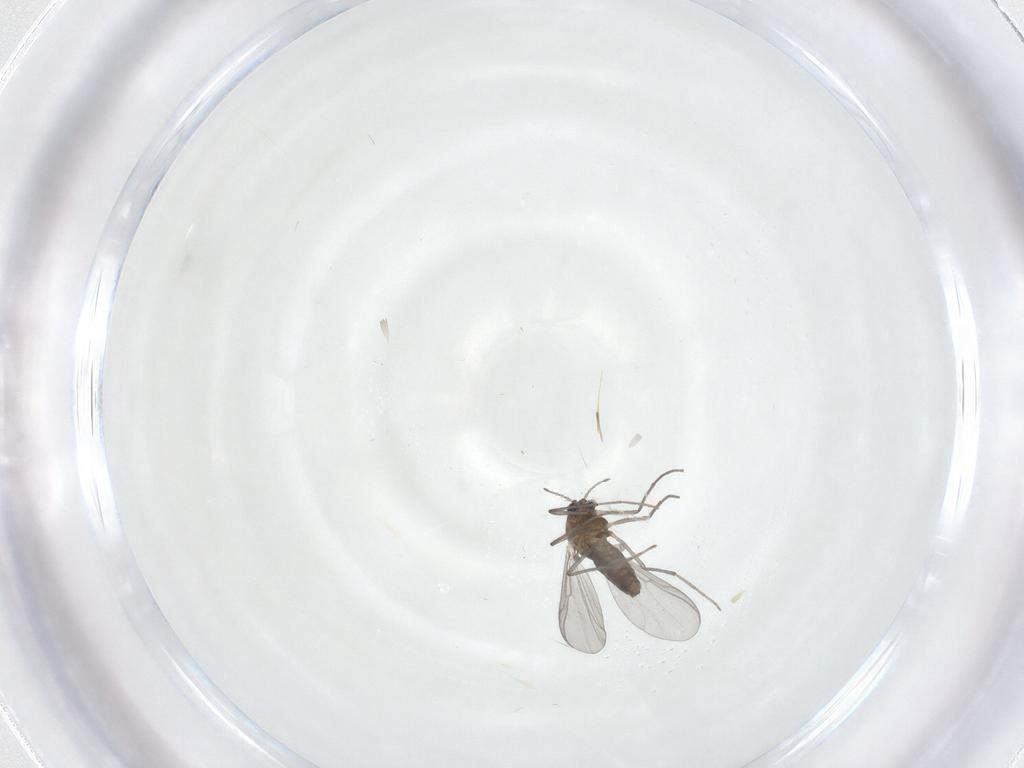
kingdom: Animalia
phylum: Arthropoda
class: Insecta
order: Diptera
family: Chironomidae
